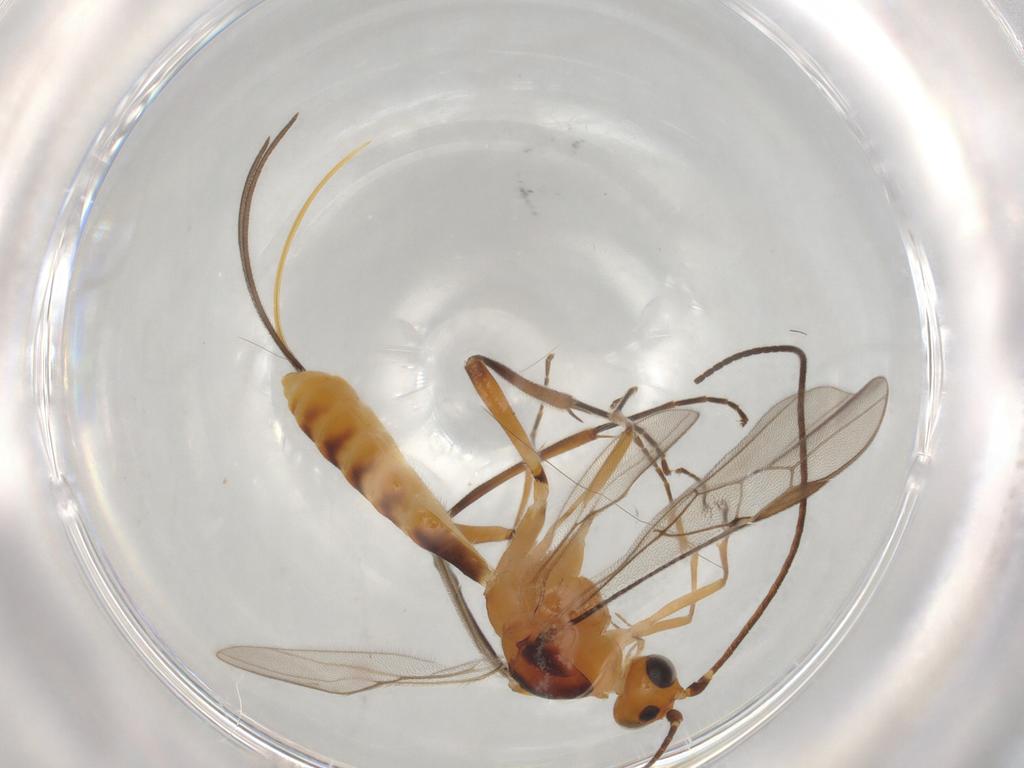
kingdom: Animalia
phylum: Arthropoda
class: Insecta
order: Hymenoptera
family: Braconidae
